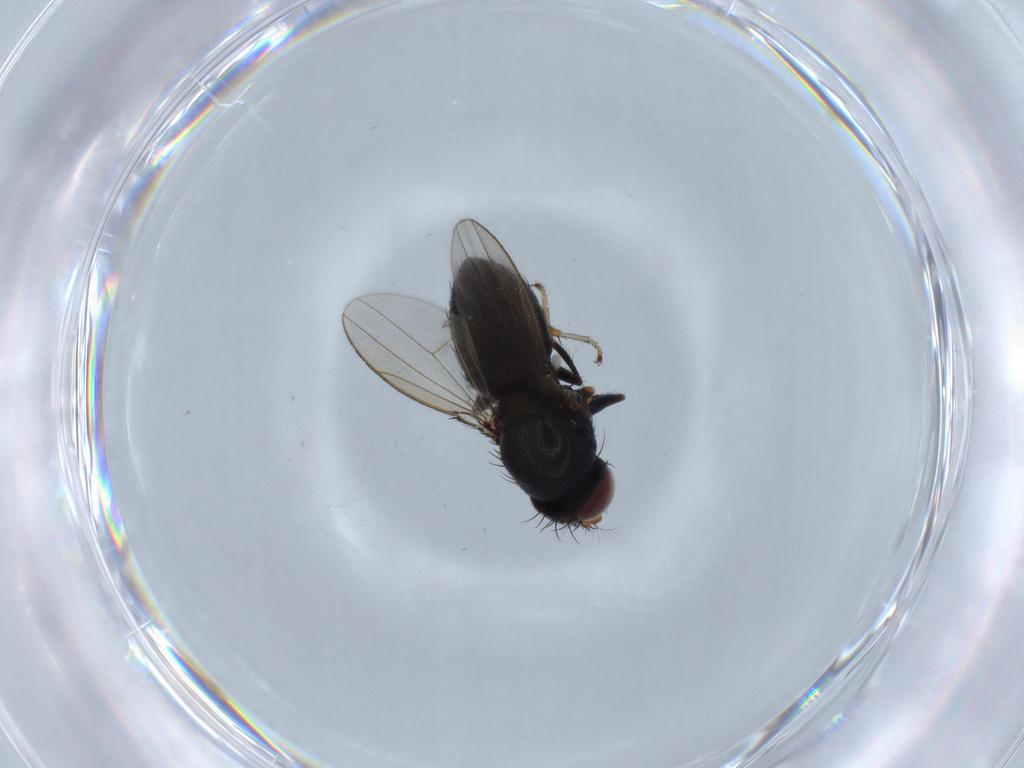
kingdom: Animalia
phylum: Arthropoda
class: Insecta
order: Diptera
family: Ephydridae
